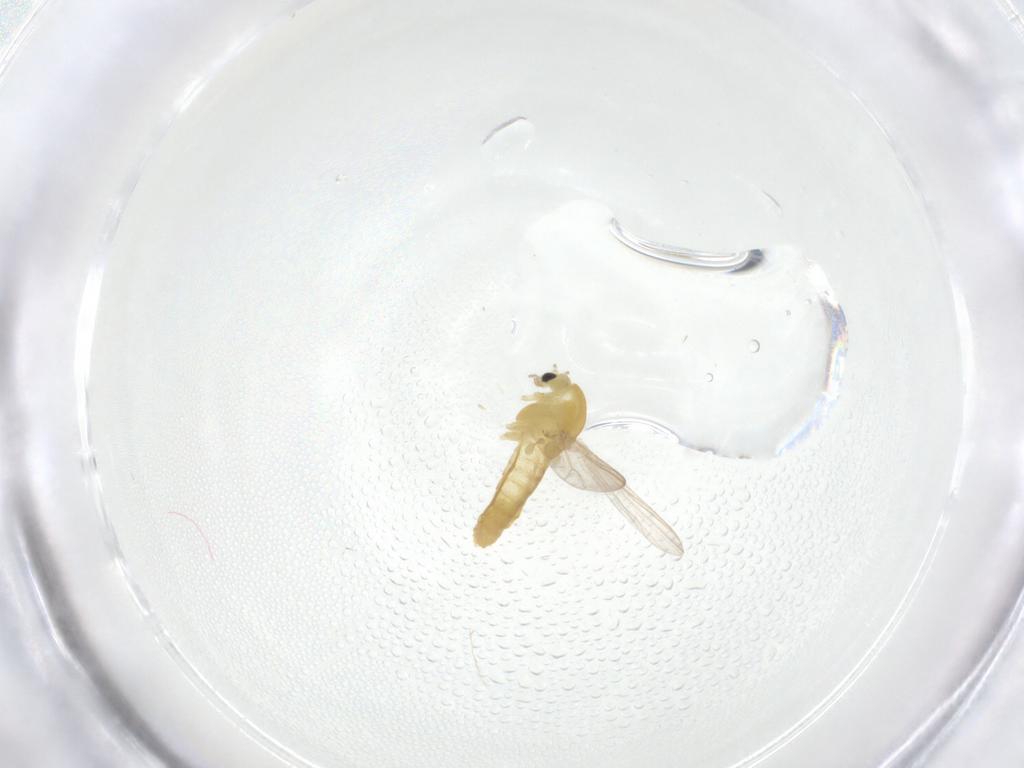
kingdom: Animalia
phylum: Arthropoda
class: Insecta
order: Diptera
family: Chironomidae
